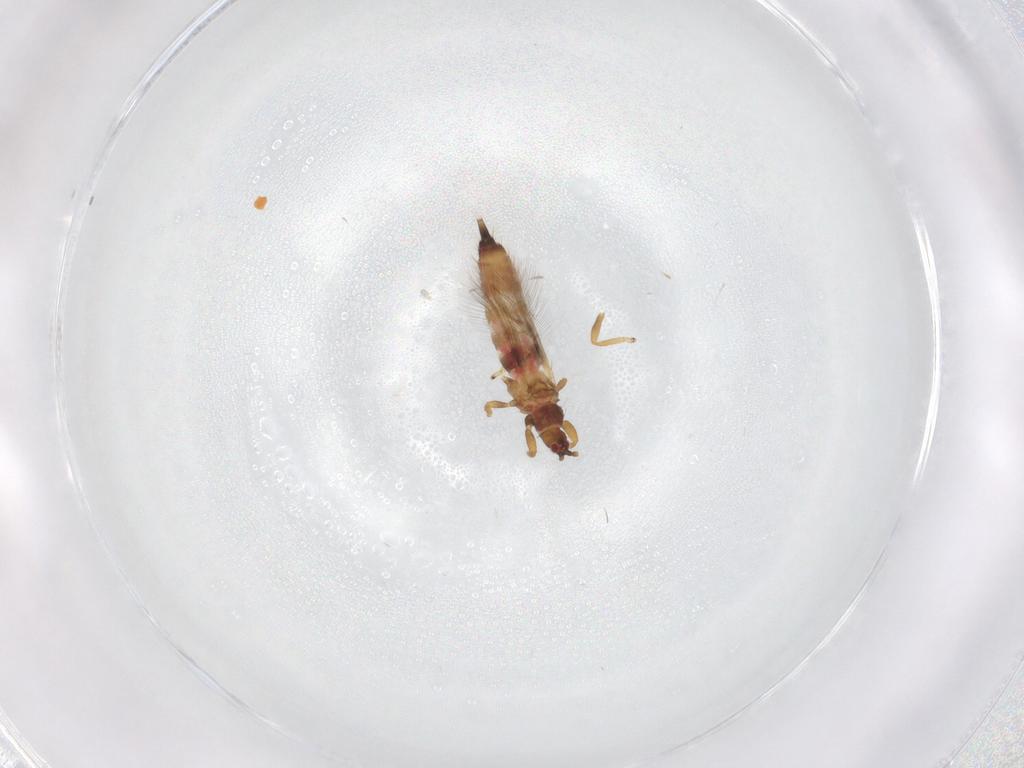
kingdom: Animalia
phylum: Arthropoda
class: Insecta
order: Thysanoptera
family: Phlaeothripidae
